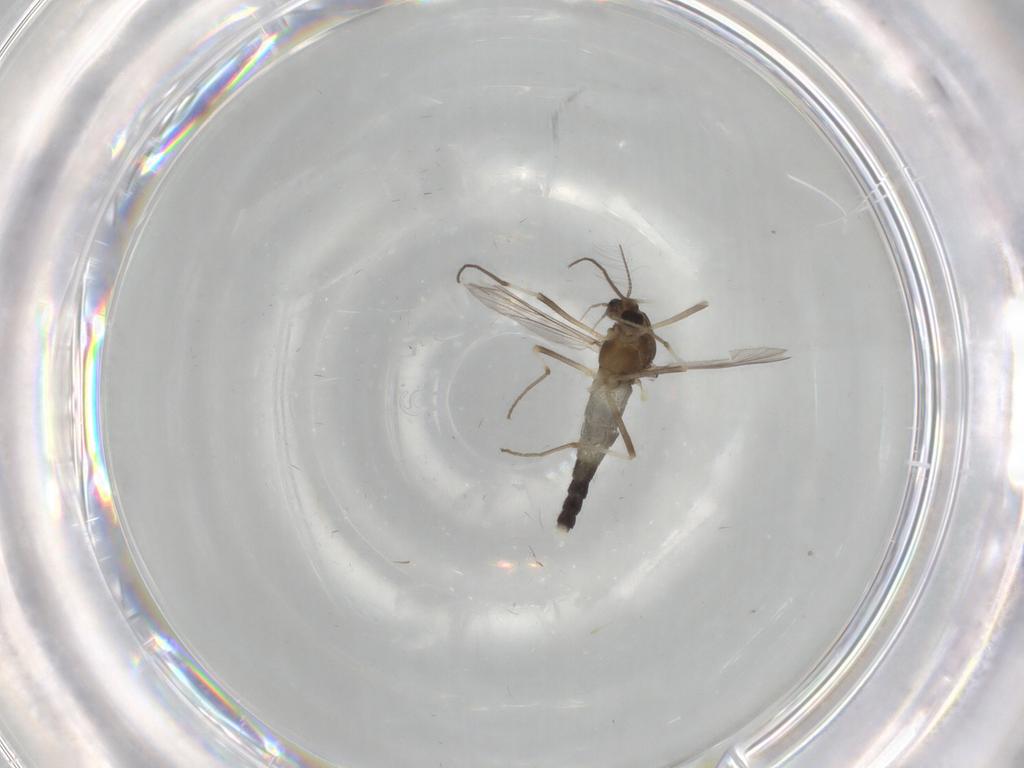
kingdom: Animalia
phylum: Arthropoda
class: Insecta
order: Diptera
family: Chironomidae
